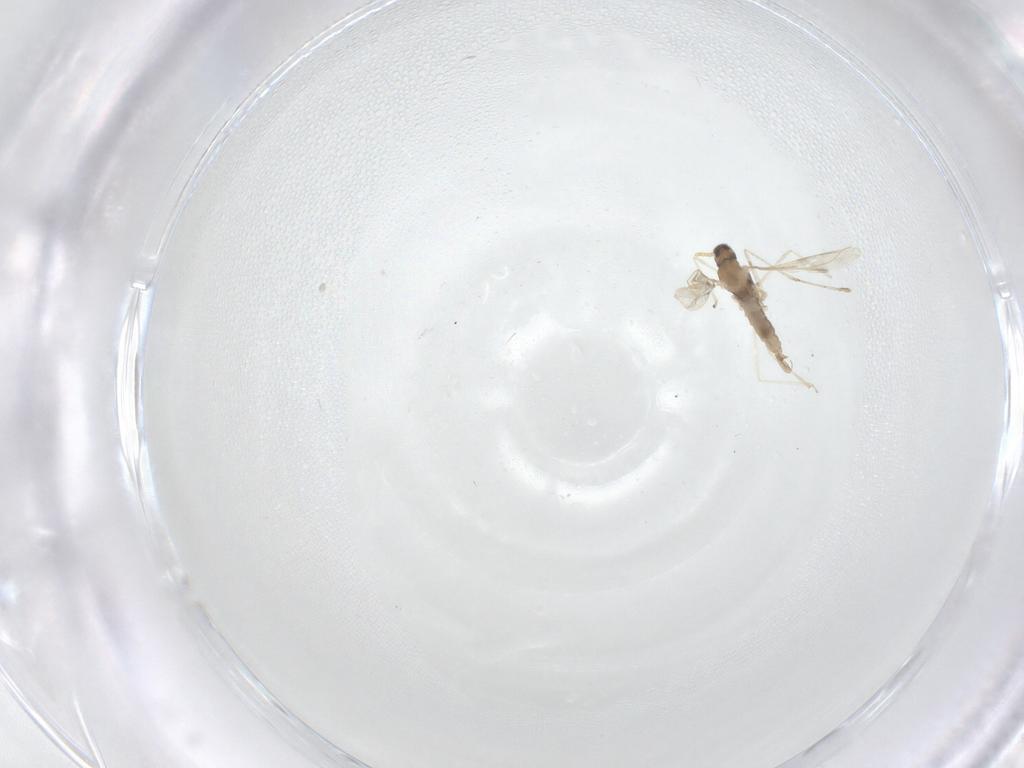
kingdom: Animalia
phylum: Arthropoda
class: Insecta
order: Diptera
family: Cecidomyiidae
